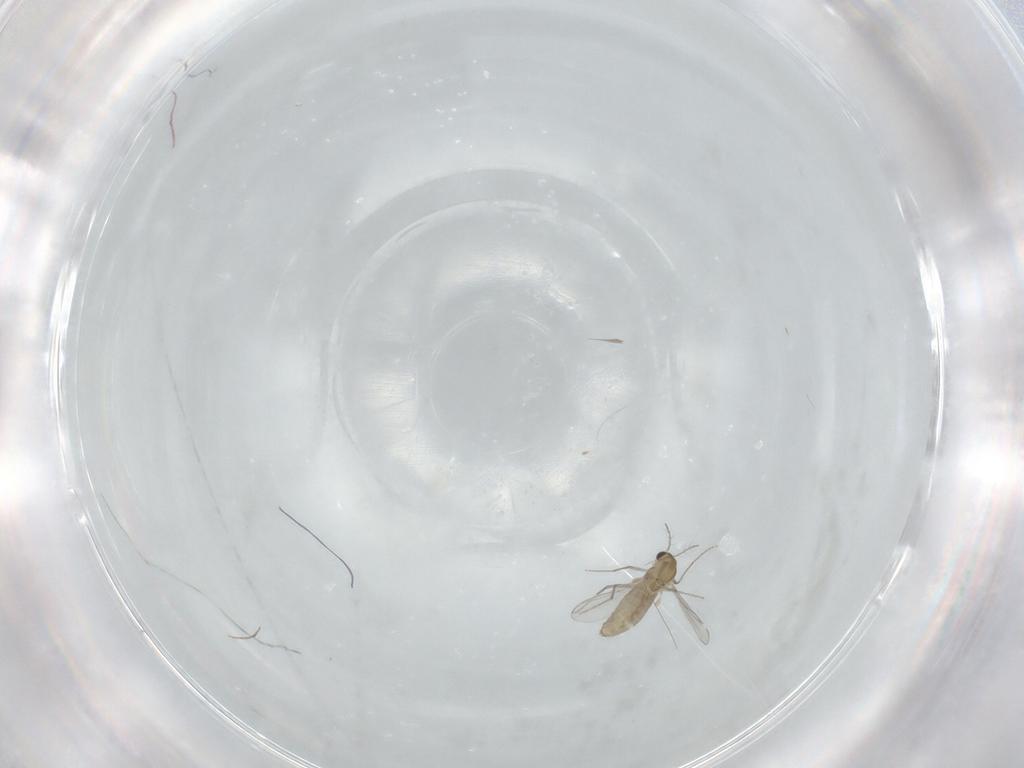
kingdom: Animalia
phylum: Arthropoda
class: Insecta
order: Diptera
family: Chironomidae
